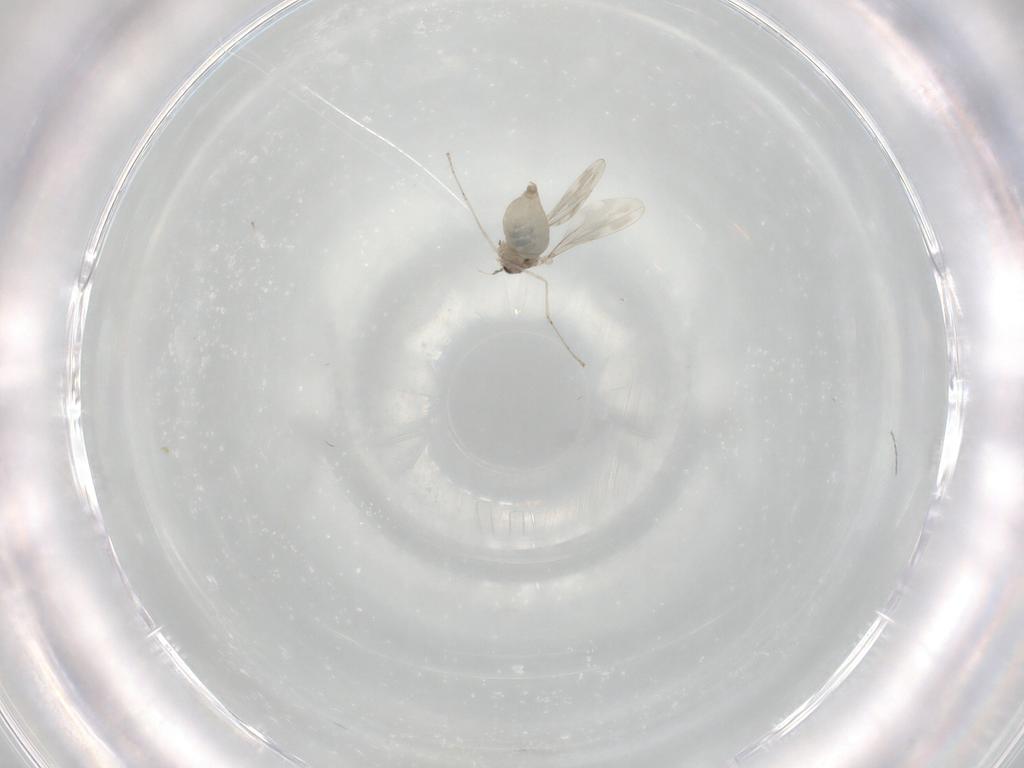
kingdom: Animalia
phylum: Arthropoda
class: Insecta
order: Diptera
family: Cecidomyiidae
